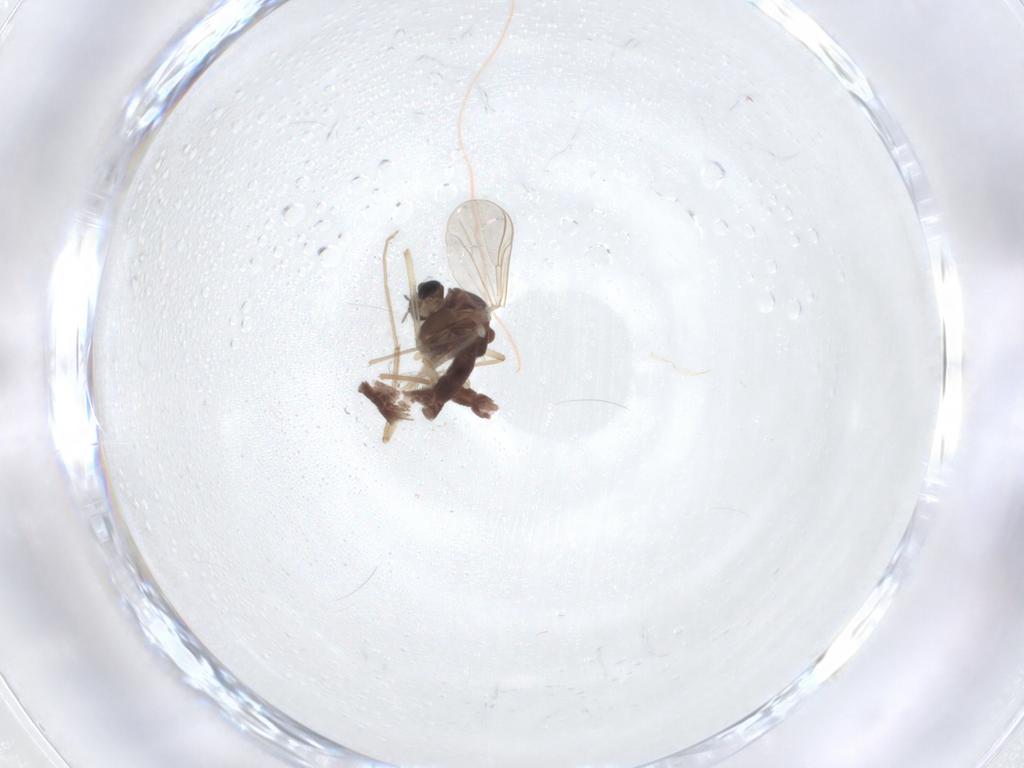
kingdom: Animalia
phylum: Arthropoda
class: Insecta
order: Diptera
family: Chironomidae
